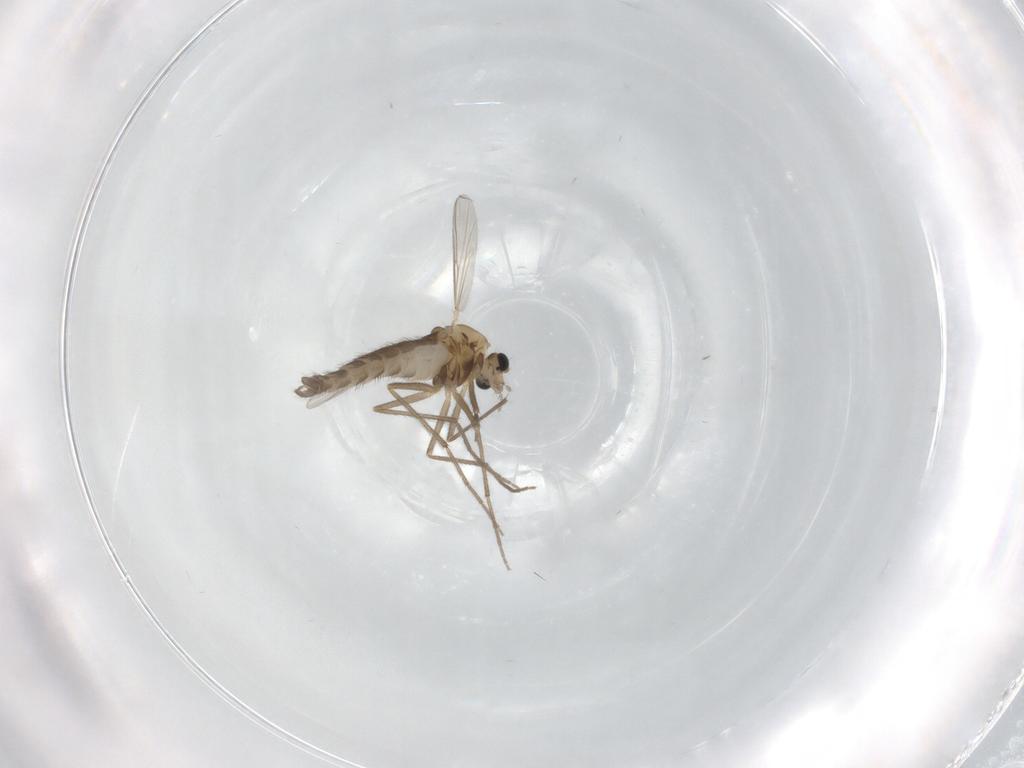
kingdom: Animalia
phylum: Arthropoda
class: Insecta
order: Diptera
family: Chironomidae
